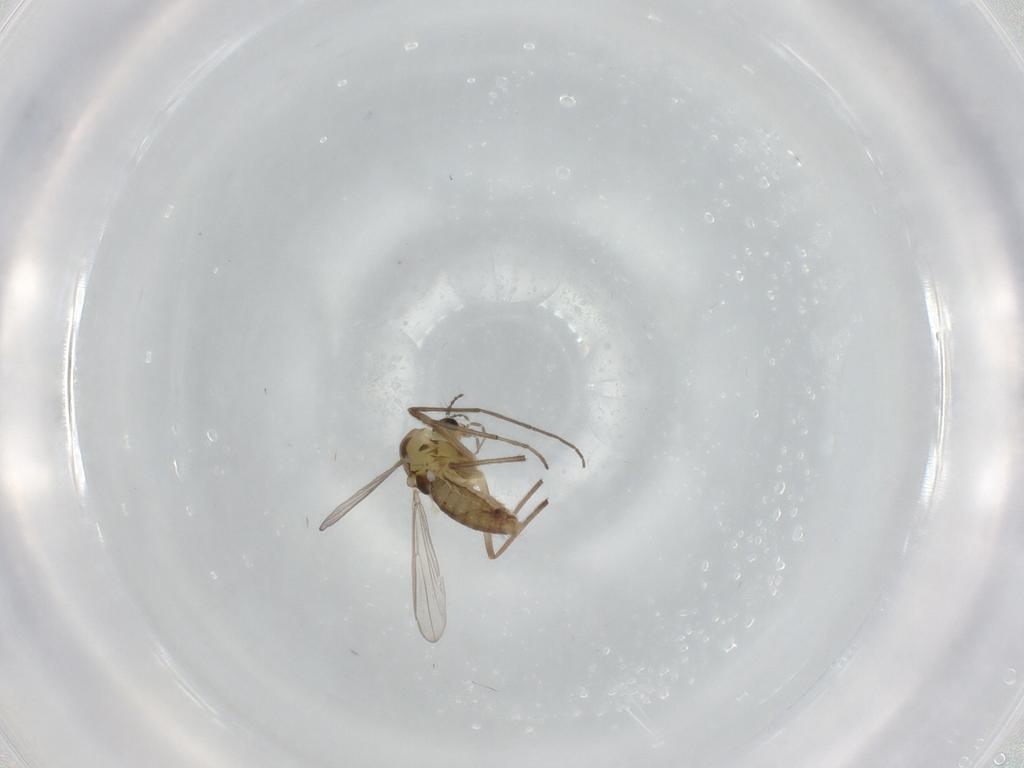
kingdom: Animalia
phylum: Arthropoda
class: Insecta
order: Diptera
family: Chironomidae
